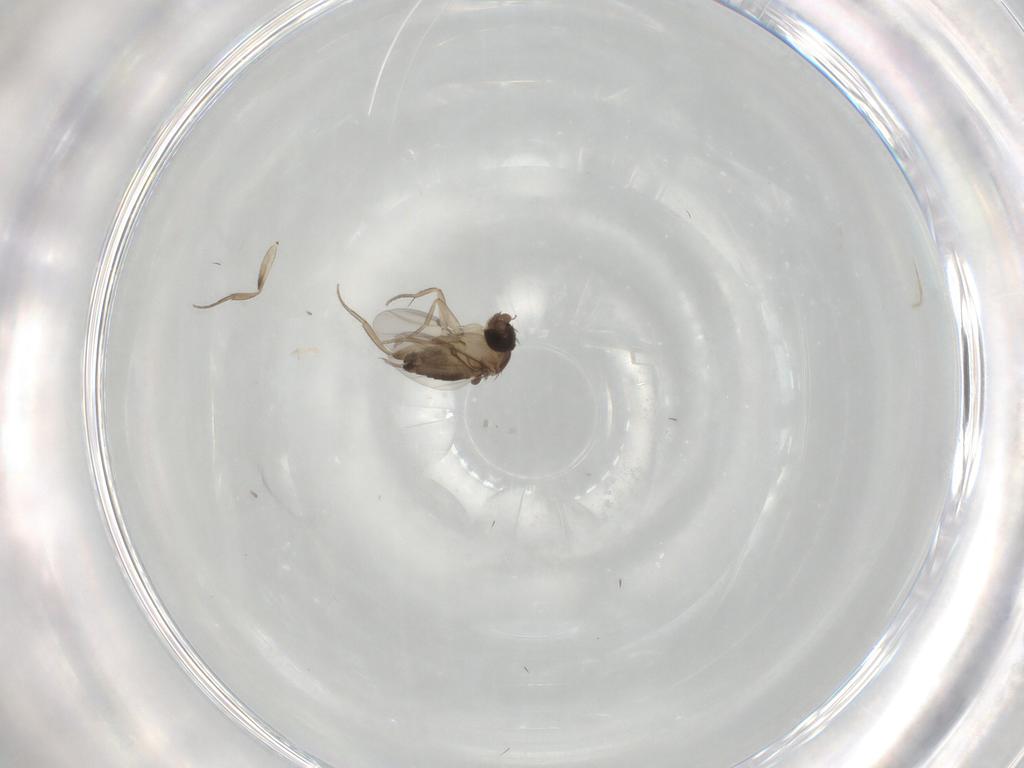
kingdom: Animalia
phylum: Arthropoda
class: Insecta
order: Diptera
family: Phoridae
